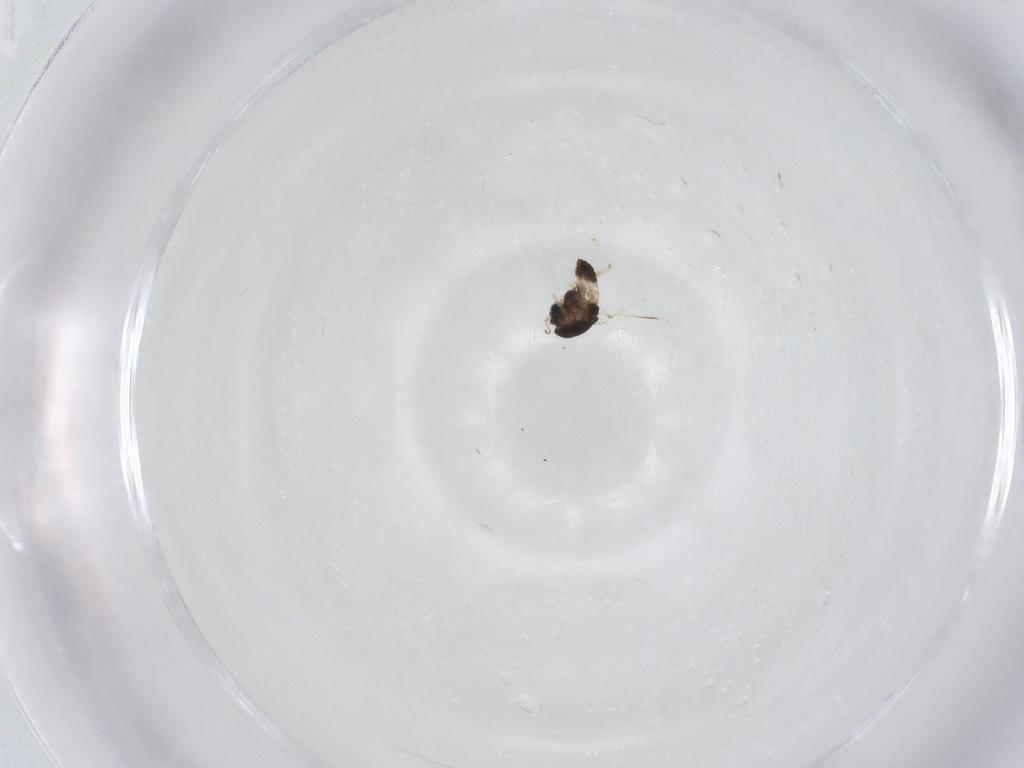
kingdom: Animalia
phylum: Arthropoda
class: Insecta
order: Diptera
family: Chironomidae
